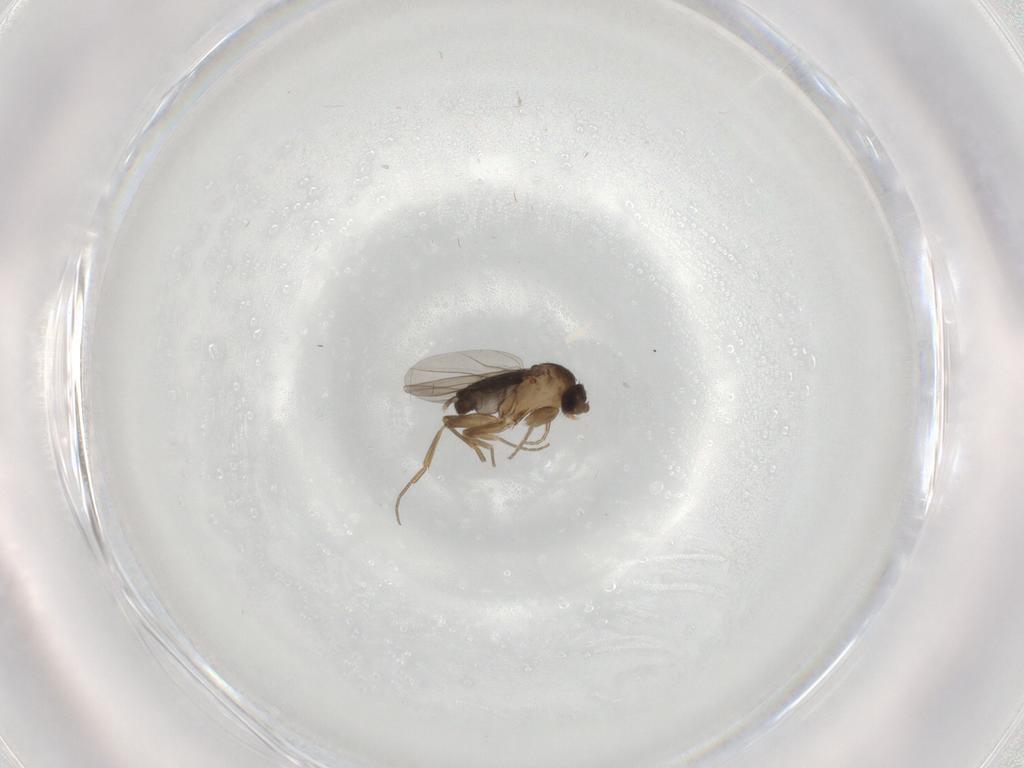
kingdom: Animalia
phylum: Arthropoda
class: Insecta
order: Diptera
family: Phoridae
